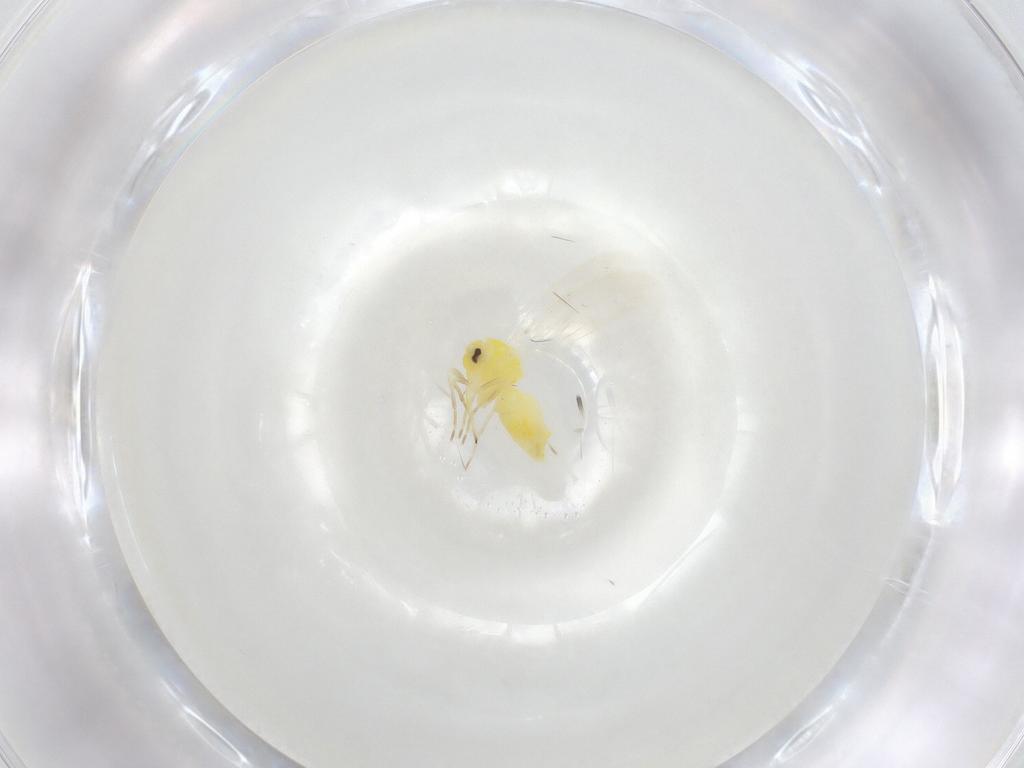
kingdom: Animalia
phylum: Arthropoda
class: Insecta
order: Hemiptera
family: Aleyrodidae
